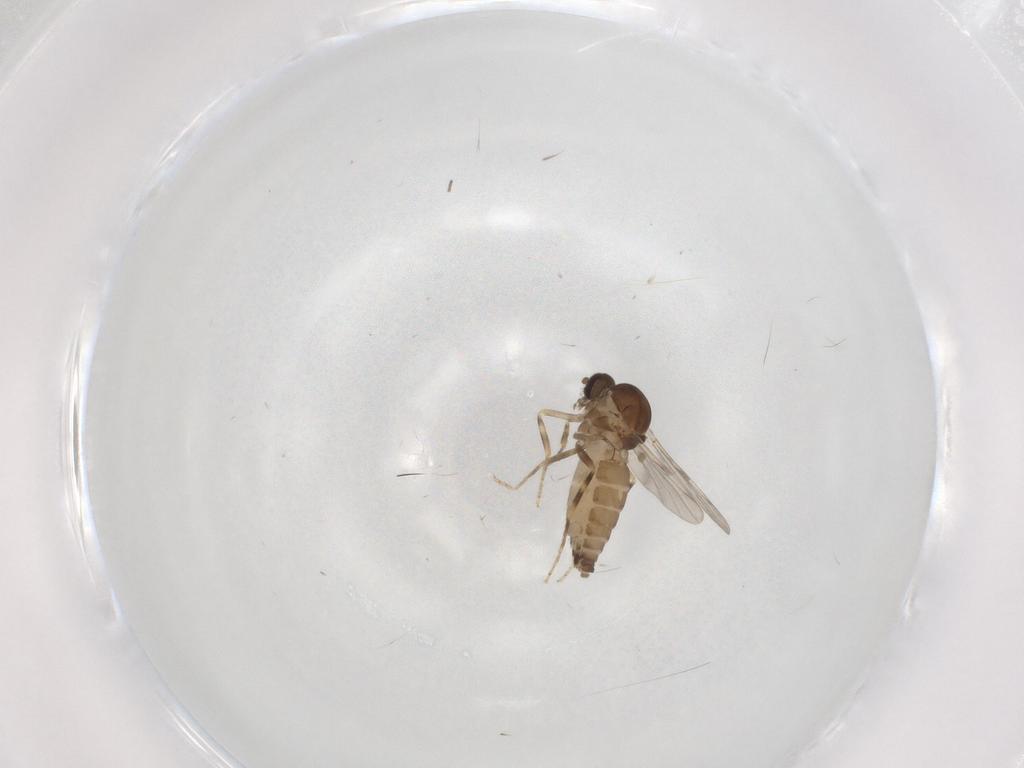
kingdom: Animalia
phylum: Arthropoda
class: Insecta
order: Diptera
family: Ceratopogonidae
